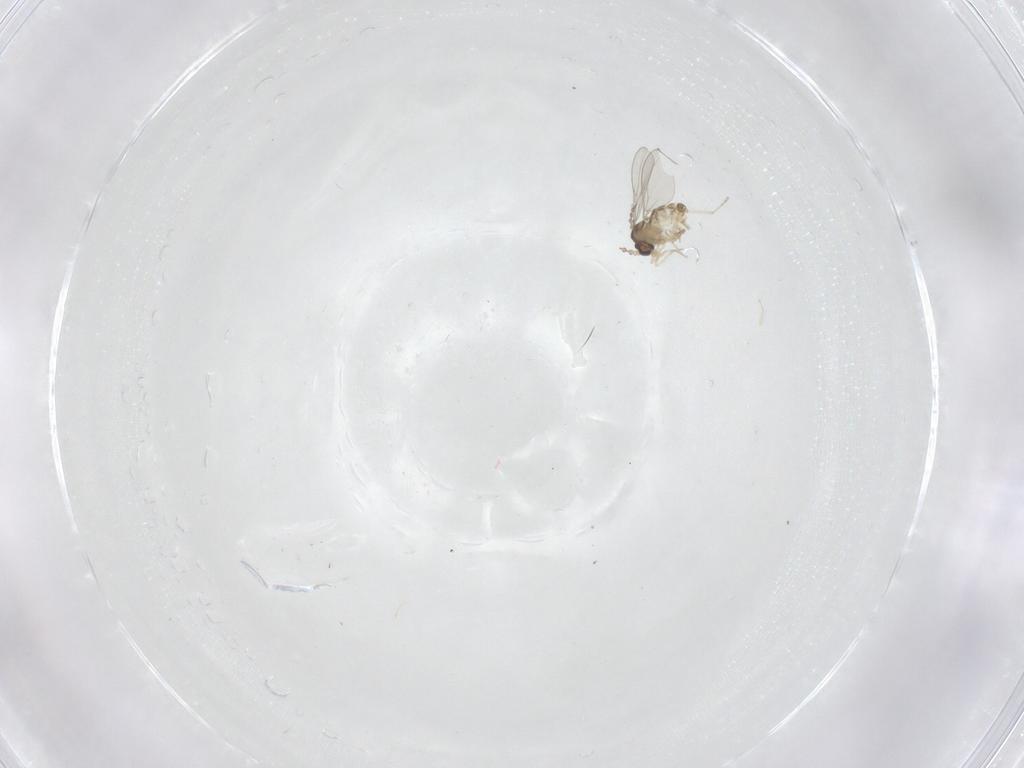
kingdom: Animalia
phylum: Arthropoda
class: Insecta
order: Diptera
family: Cecidomyiidae
